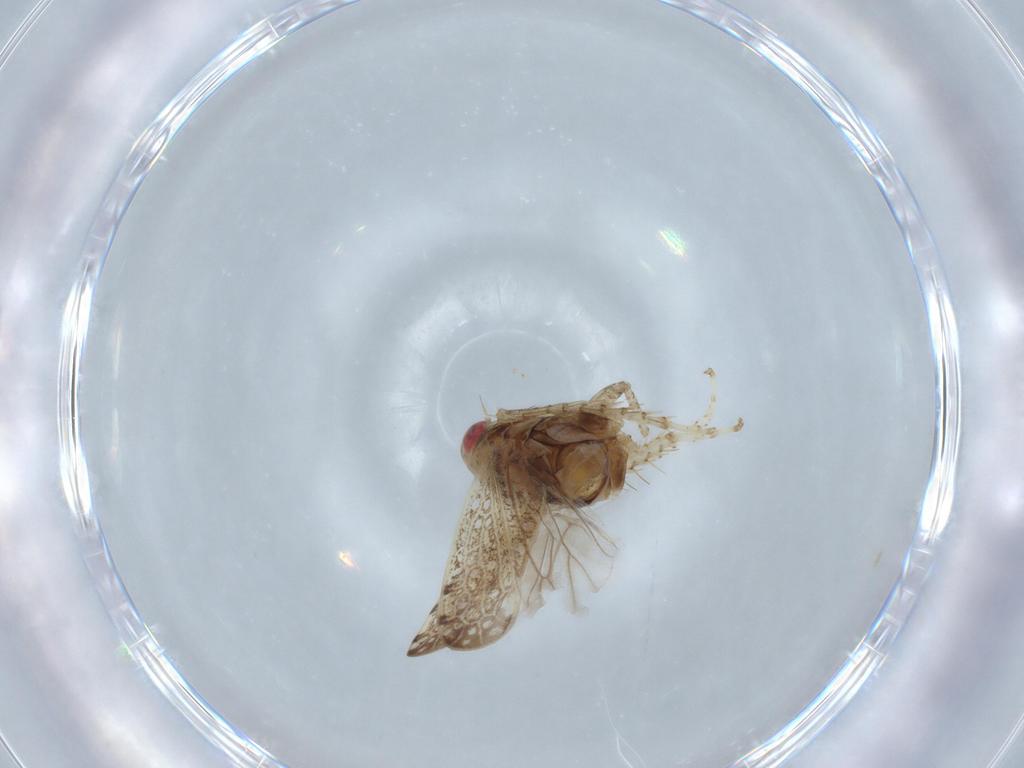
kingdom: Animalia
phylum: Arthropoda
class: Insecta
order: Hemiptera
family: Cicadellidae
